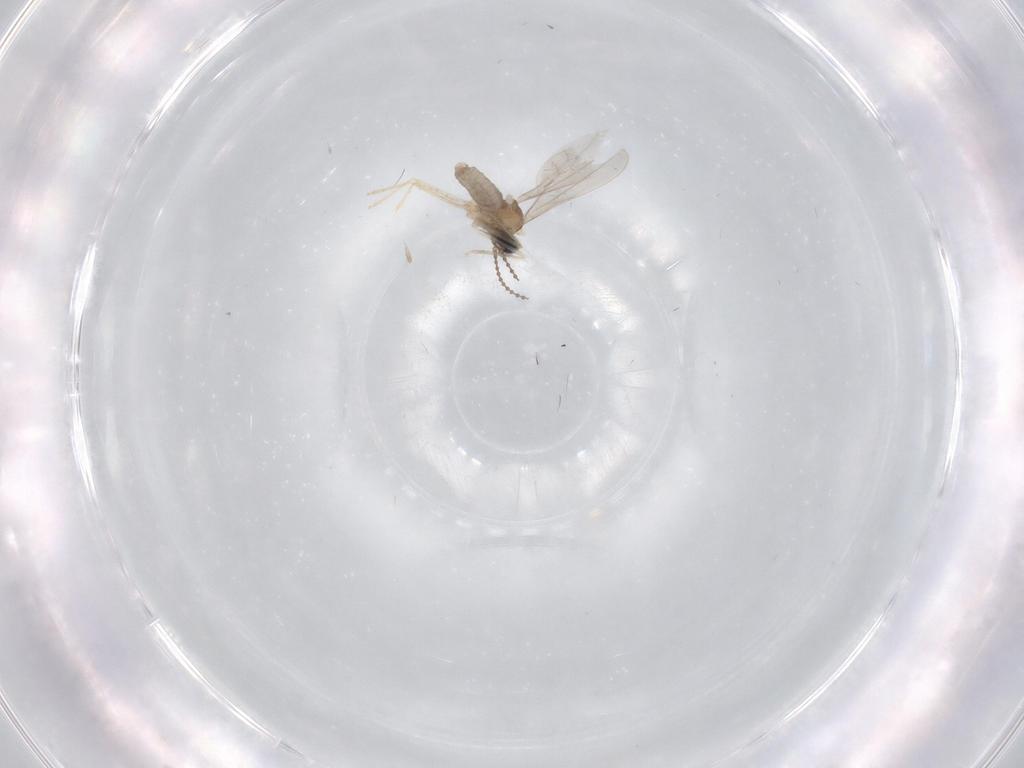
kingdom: Animalia
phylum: Arthropoda
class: Insecta
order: Diptera
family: Cecidomyiidae
